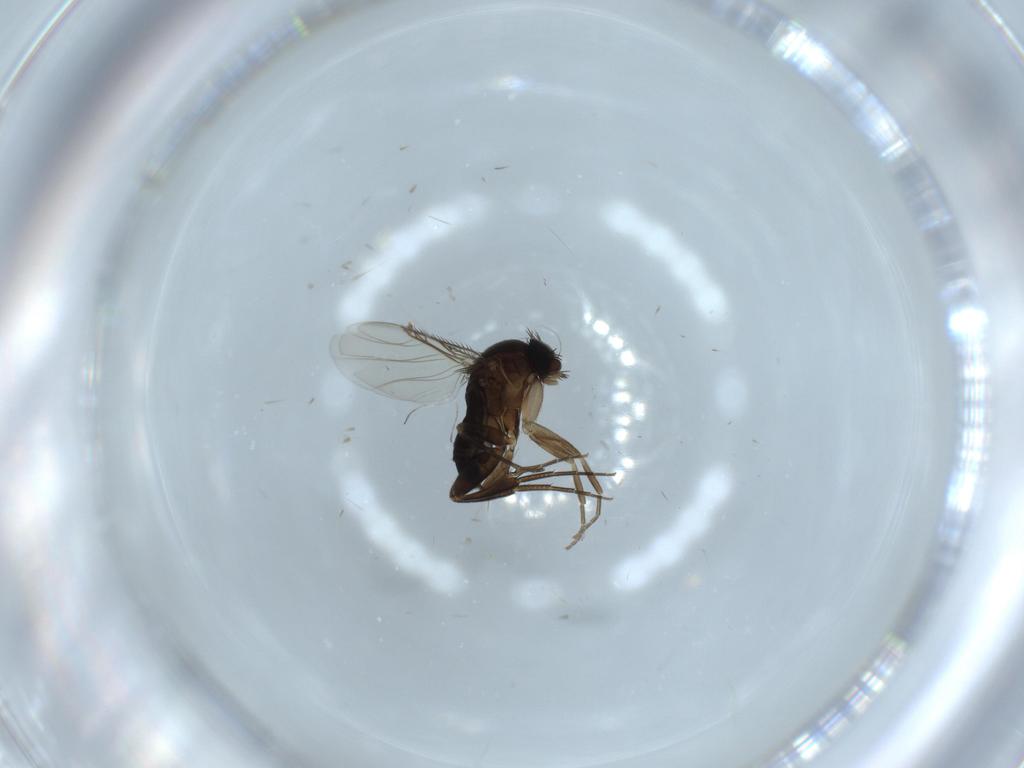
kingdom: Animalia
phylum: Arthropoda
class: Insecta
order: Diptera
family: Phoridae
